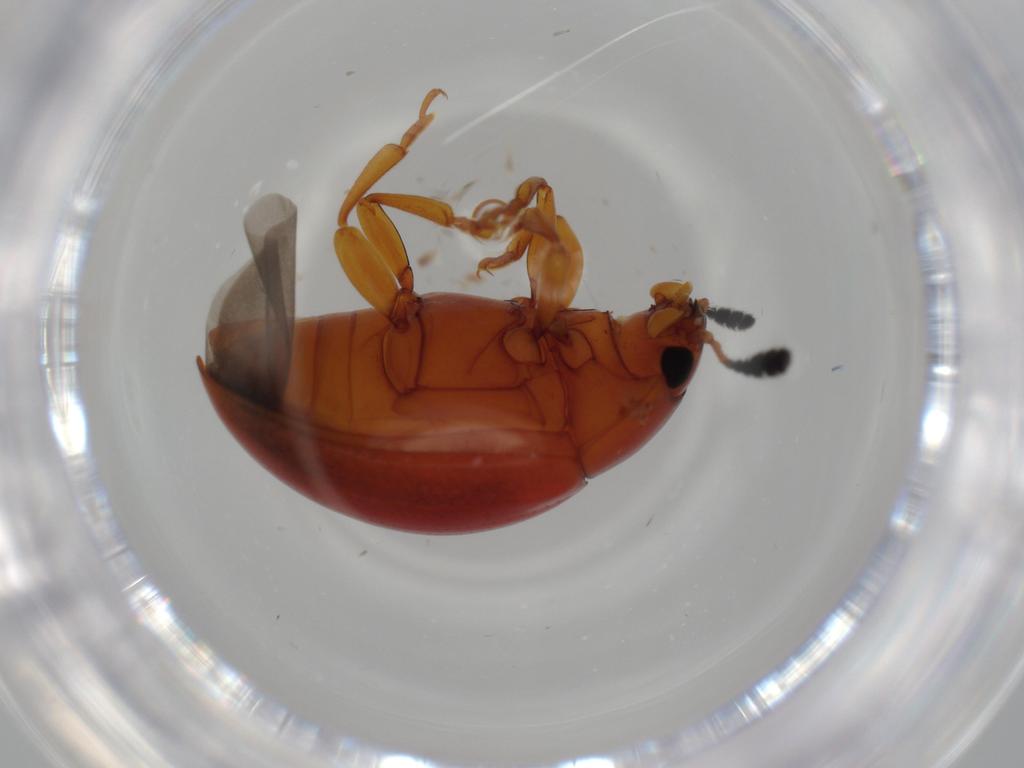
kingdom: Animalia
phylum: Arthropoda
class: Insecta
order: Coleoptera
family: Erotylidae
